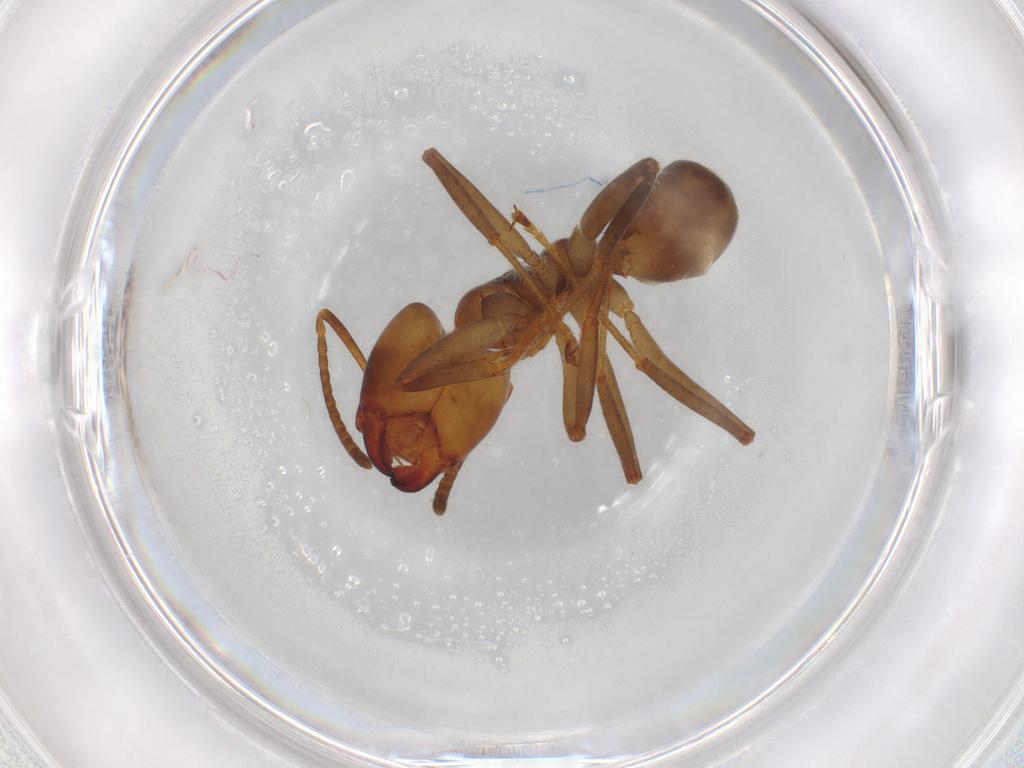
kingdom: Animalia
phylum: Arthropoda
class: Insecta
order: Hymenoptera
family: Formicidae
